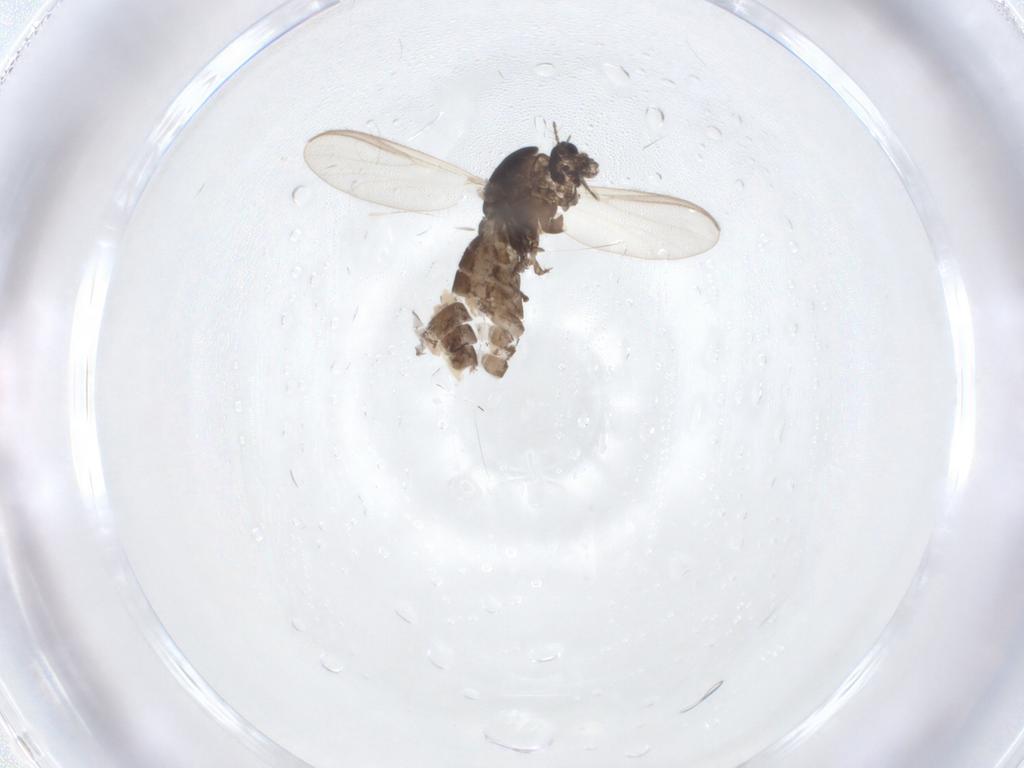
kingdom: Animalia
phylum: Arthropoda
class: Insecta
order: Diptera
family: Chironomidae
